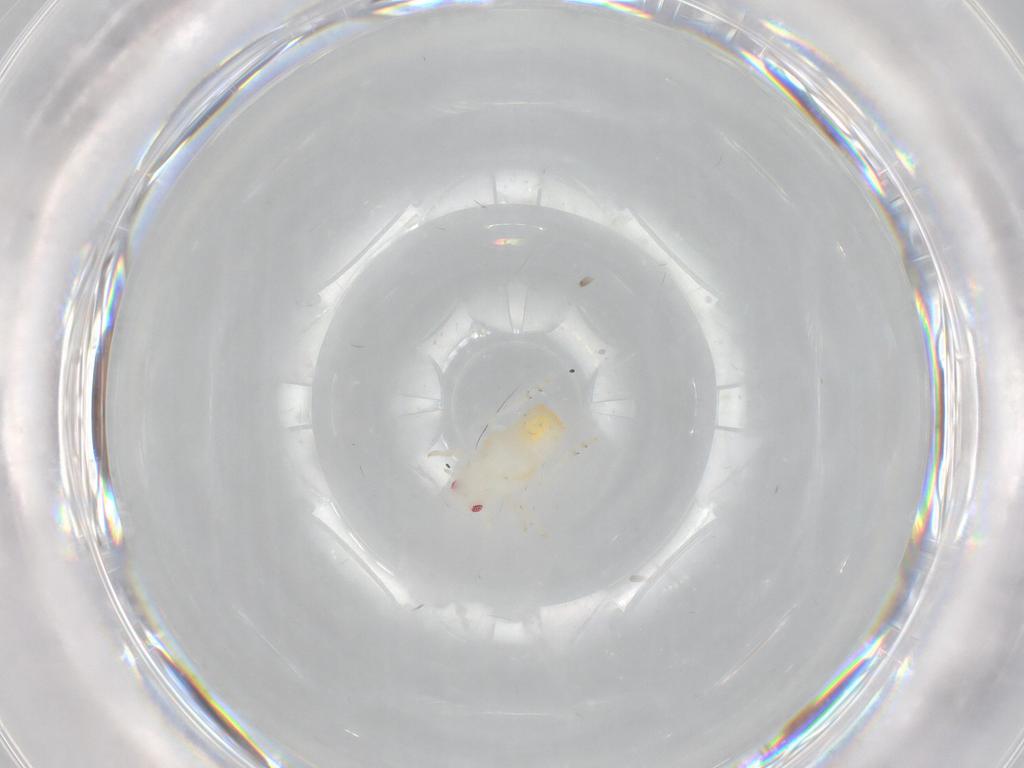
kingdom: Animalia
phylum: Arthropoda
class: Insecta
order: Hemiptera
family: Flatidae
